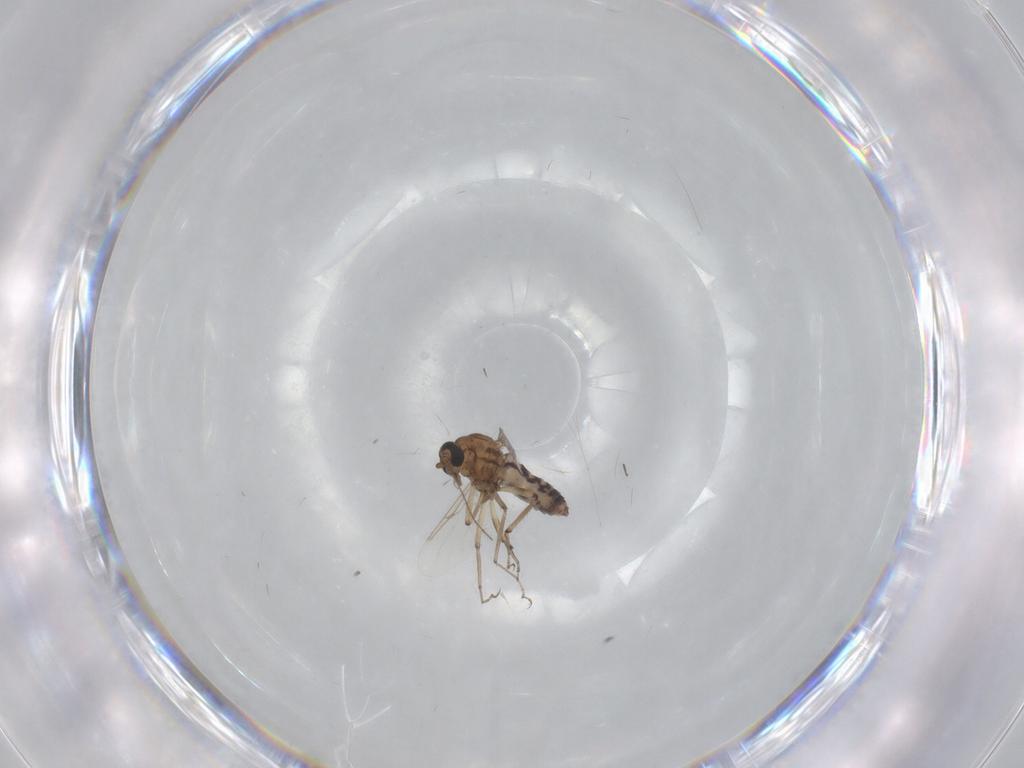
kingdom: Animalia
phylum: Arthropoda
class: Insecta
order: Diptera
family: Ceratopogonidae
